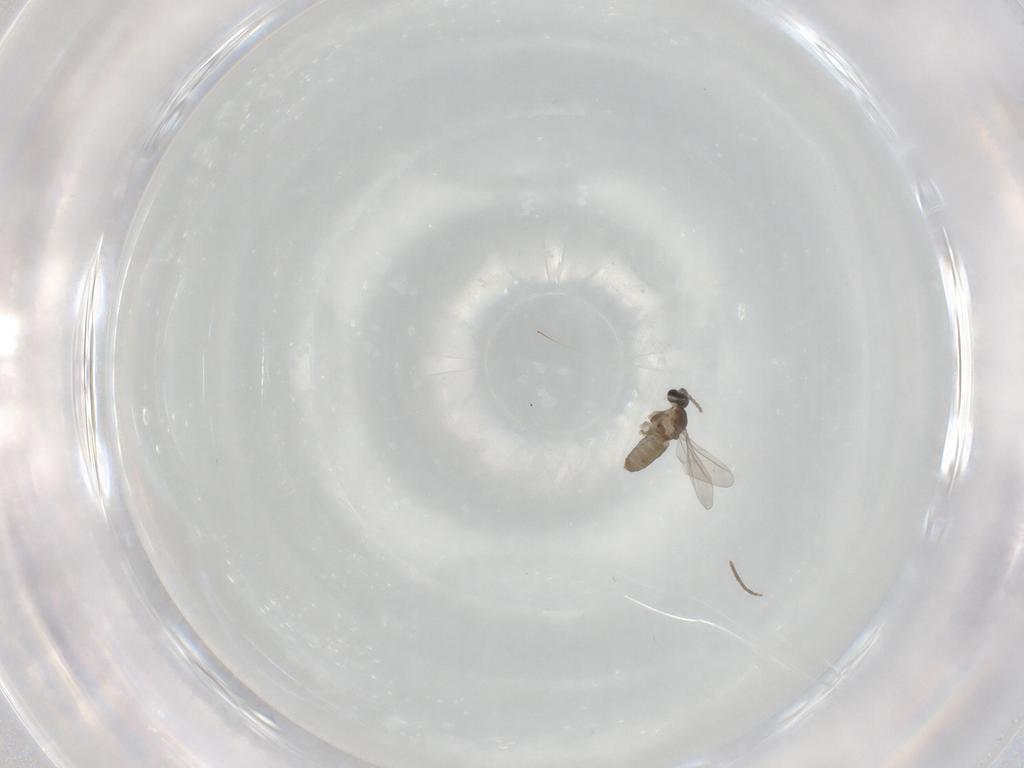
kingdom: Animalia
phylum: Arthropoda
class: Insecta
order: Diptera
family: Cecidomyiidae
